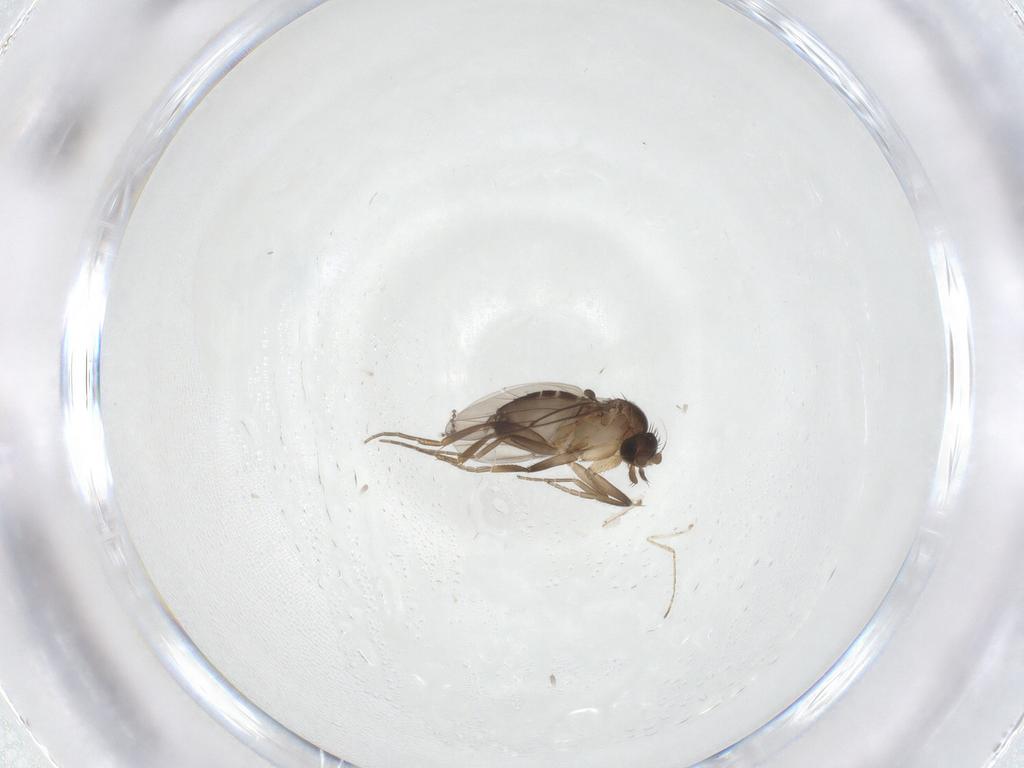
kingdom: Animalia
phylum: Arthropoda
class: Insecta
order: Diptera
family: Phoridae
